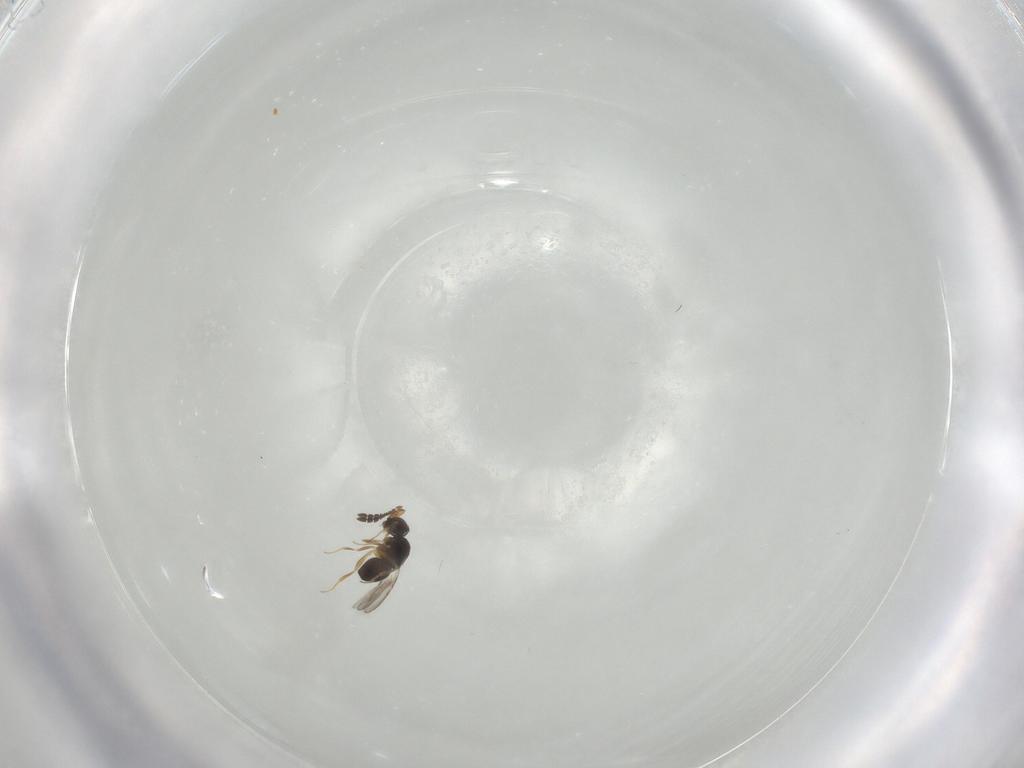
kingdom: Animalia
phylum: Arthropoda
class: Insecta
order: Hymenoptera
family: Ceraphronidae
